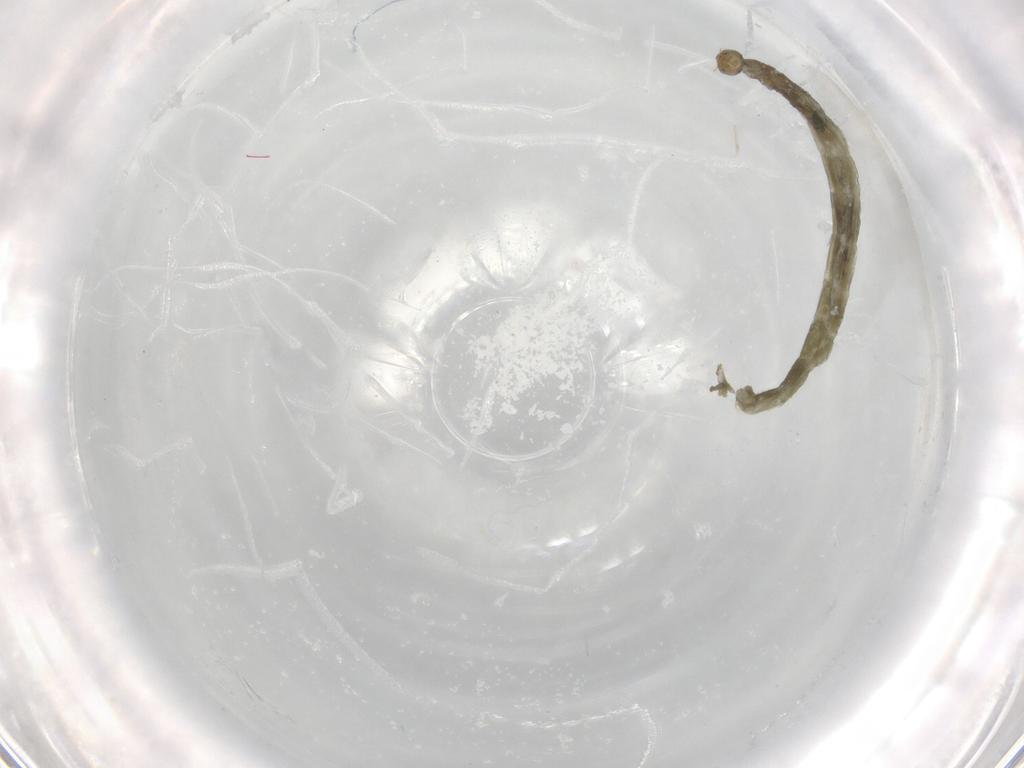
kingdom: Animalia
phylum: Arthropoda
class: Insecta
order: Diptera
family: Chironomidae
